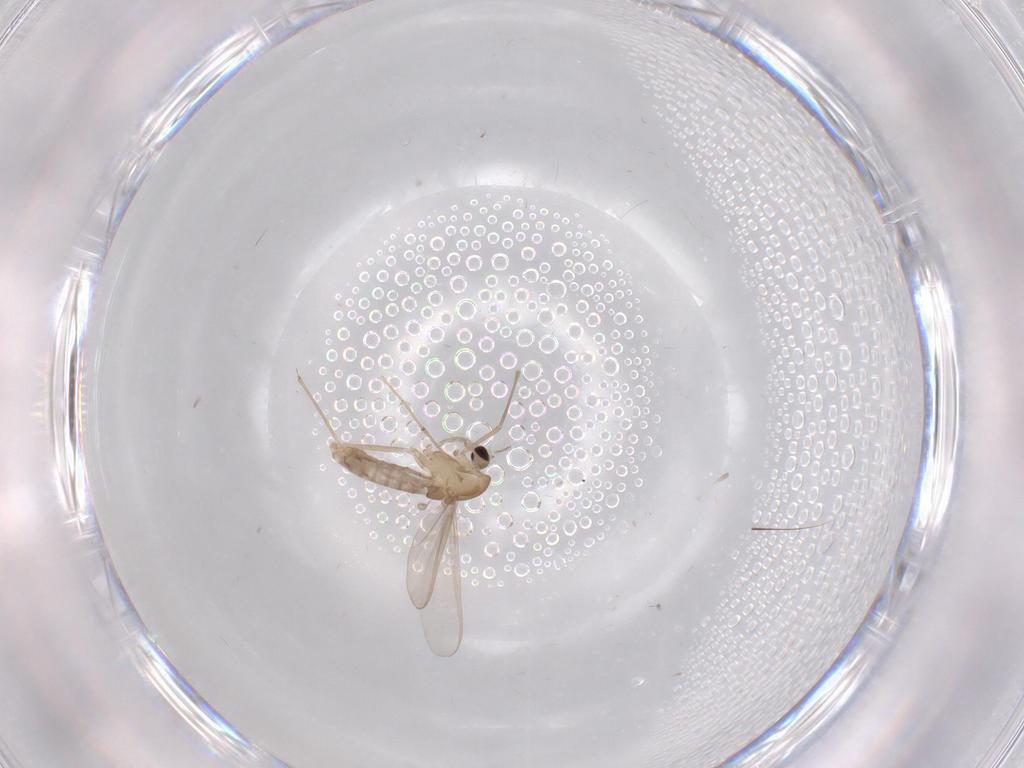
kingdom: Animalia
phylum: Arthropoda
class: Insecta
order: Diptera
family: Chironomidae
